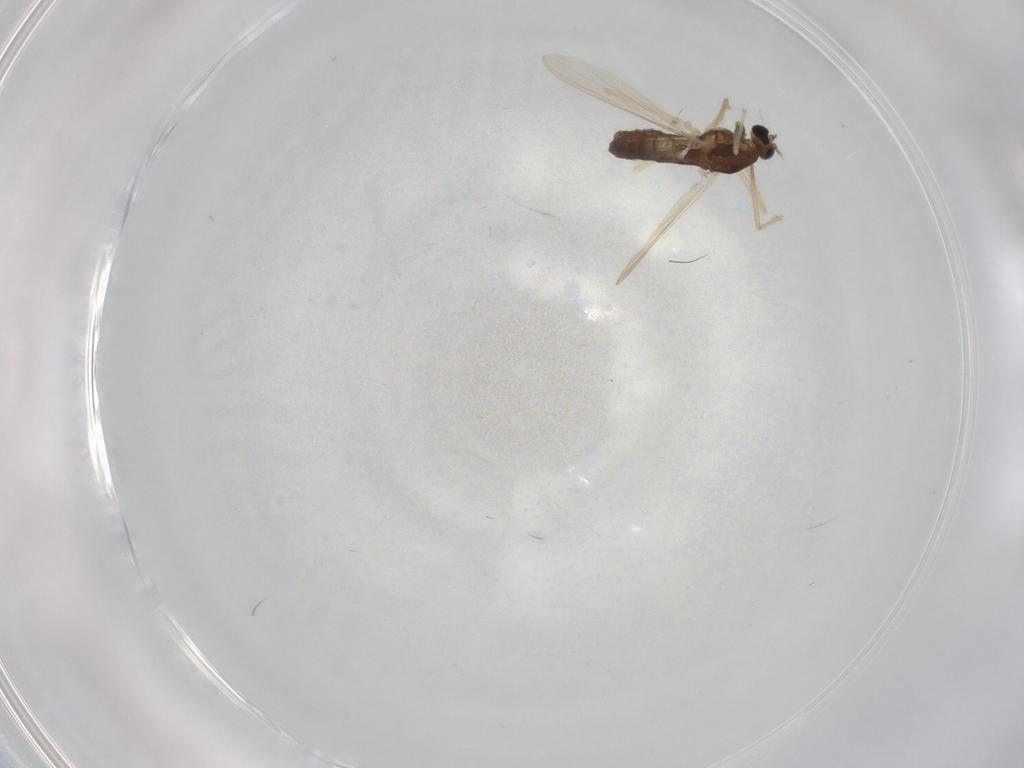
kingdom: Animalia
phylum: Arthropoda
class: Insecta
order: Diptera
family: Chironomidae
